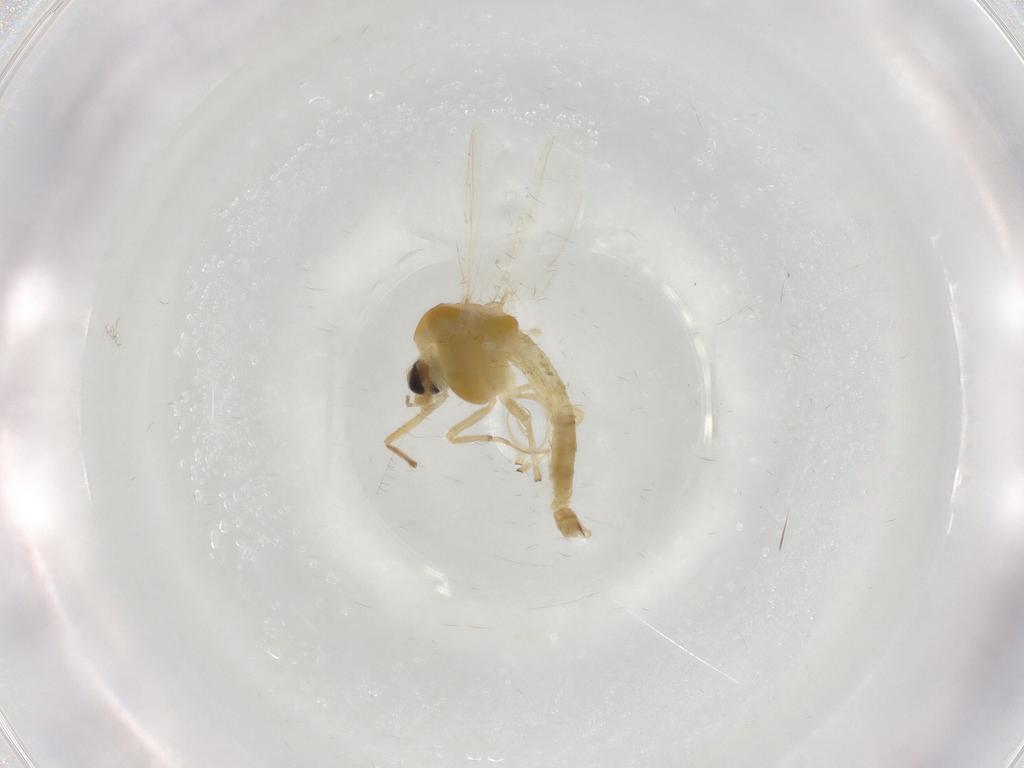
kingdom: Animalia
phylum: Arthropoda
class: Insecta
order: Diptera
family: Chironomidae
